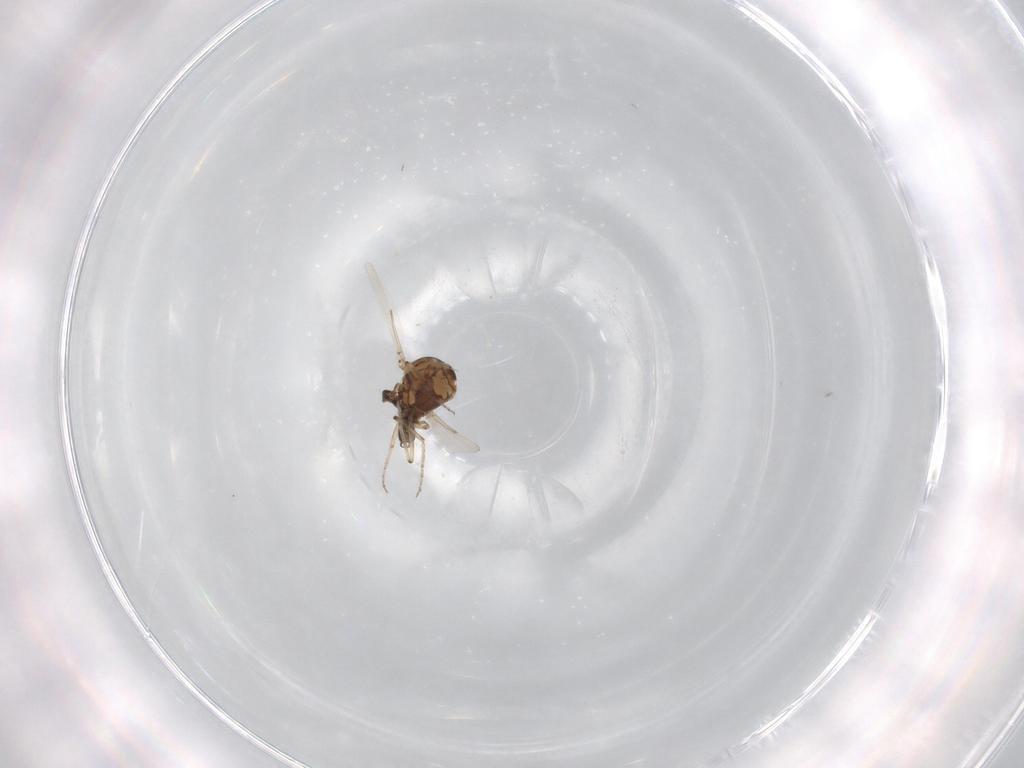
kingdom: Animalia
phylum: Arthropoda
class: Insecta
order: Diptera
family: Ceratopogonidae
